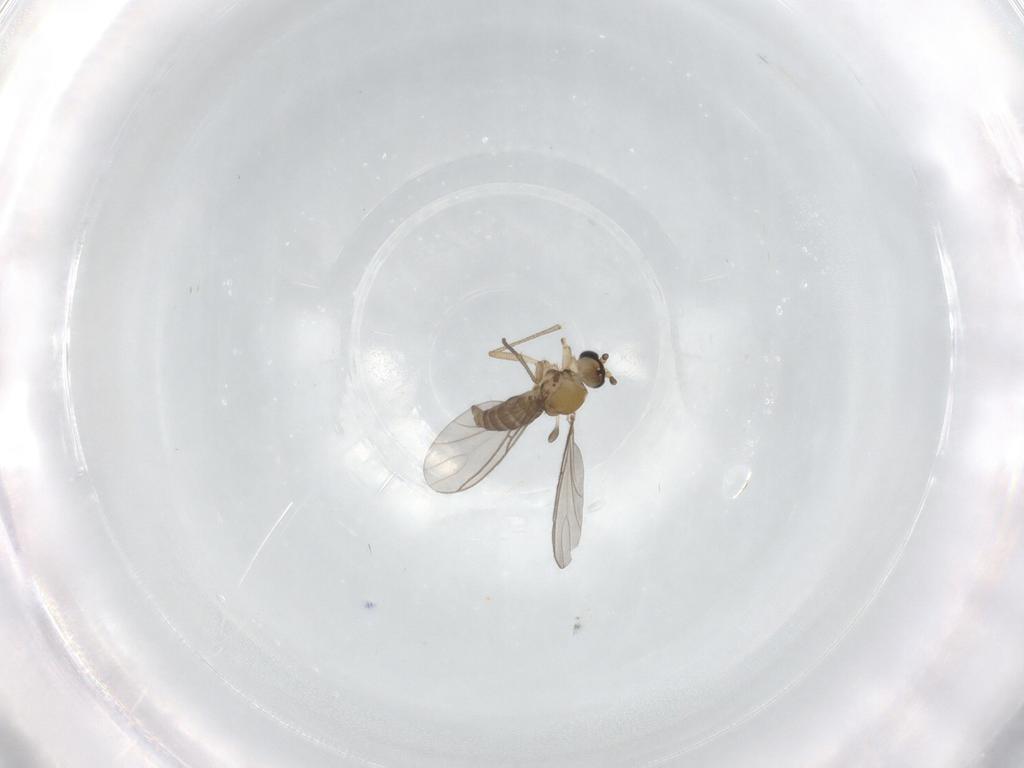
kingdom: Animalia
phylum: Arthropoda
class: Insecta
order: Diptera
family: Sciaridae
